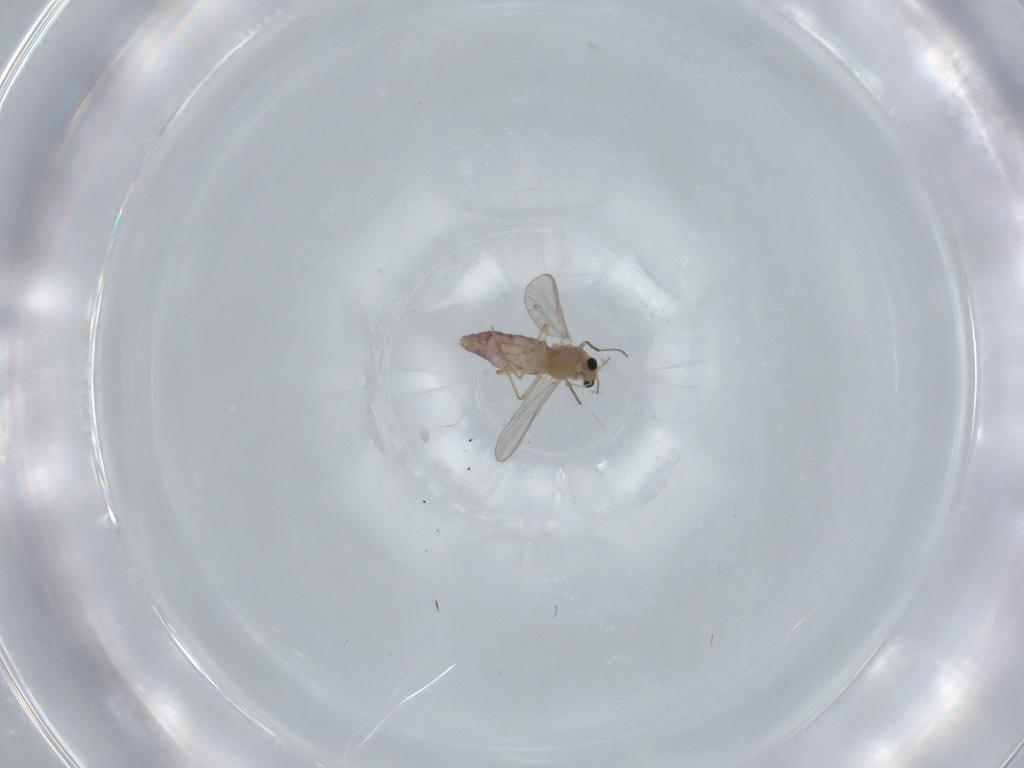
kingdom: Animalia
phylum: Arthropoda
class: Insecta
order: Diptera
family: Chironomidae
